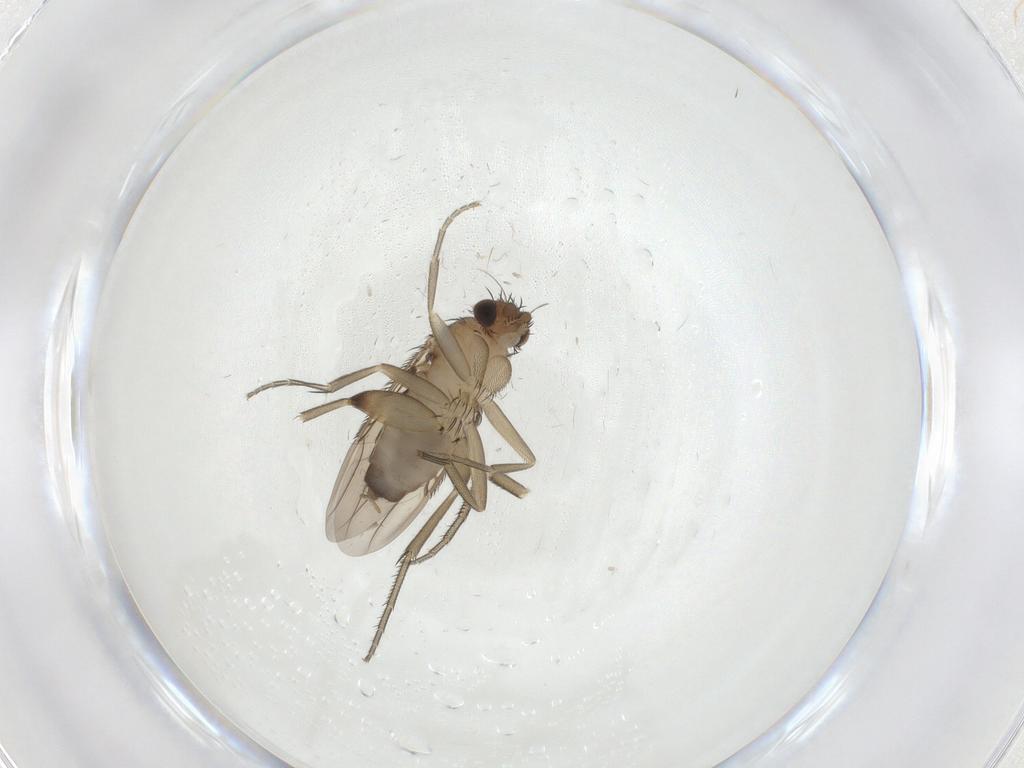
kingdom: Animalia
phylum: Arthropoda
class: Insecta
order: Diptera
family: Phoridae
